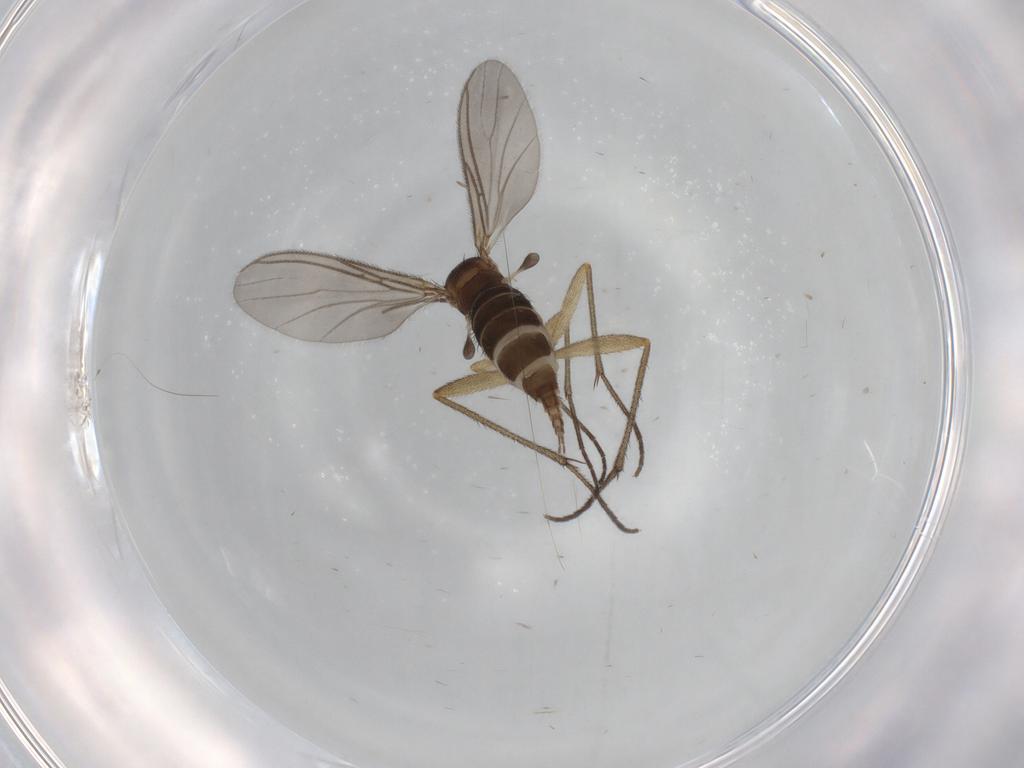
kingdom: Animalia
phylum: Arthropoda
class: Insecta
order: Diptera
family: Sciaridae
